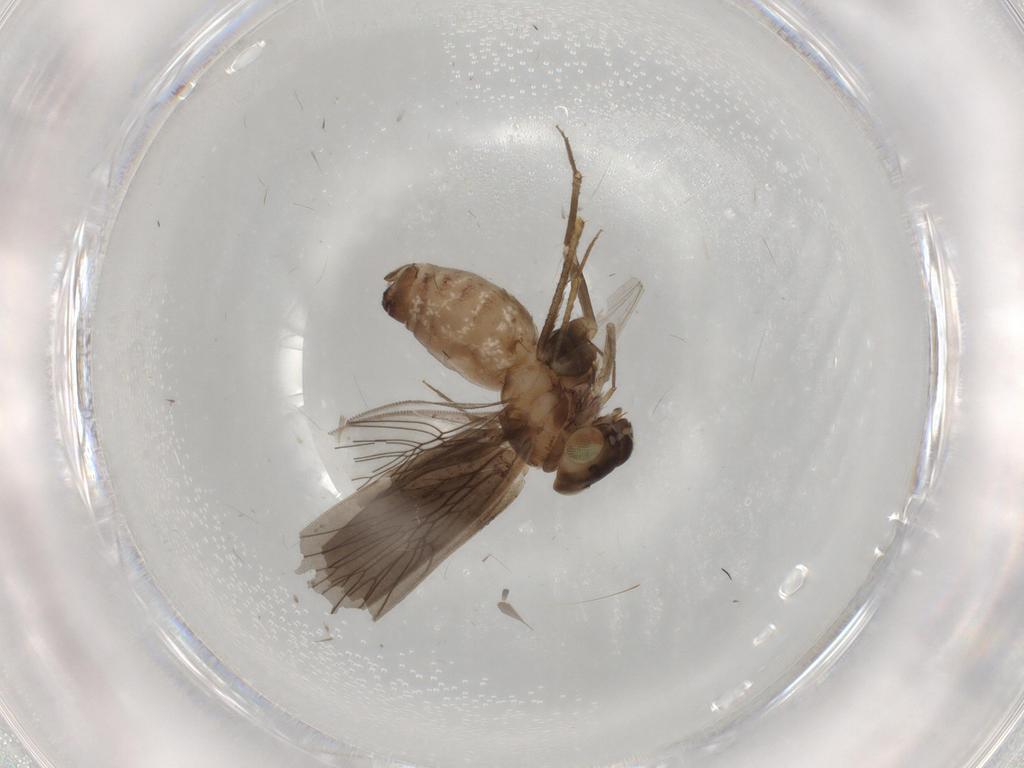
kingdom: Animalia
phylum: Arthropoda
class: Insecta
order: Psocodea
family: Lepidopsocidae
